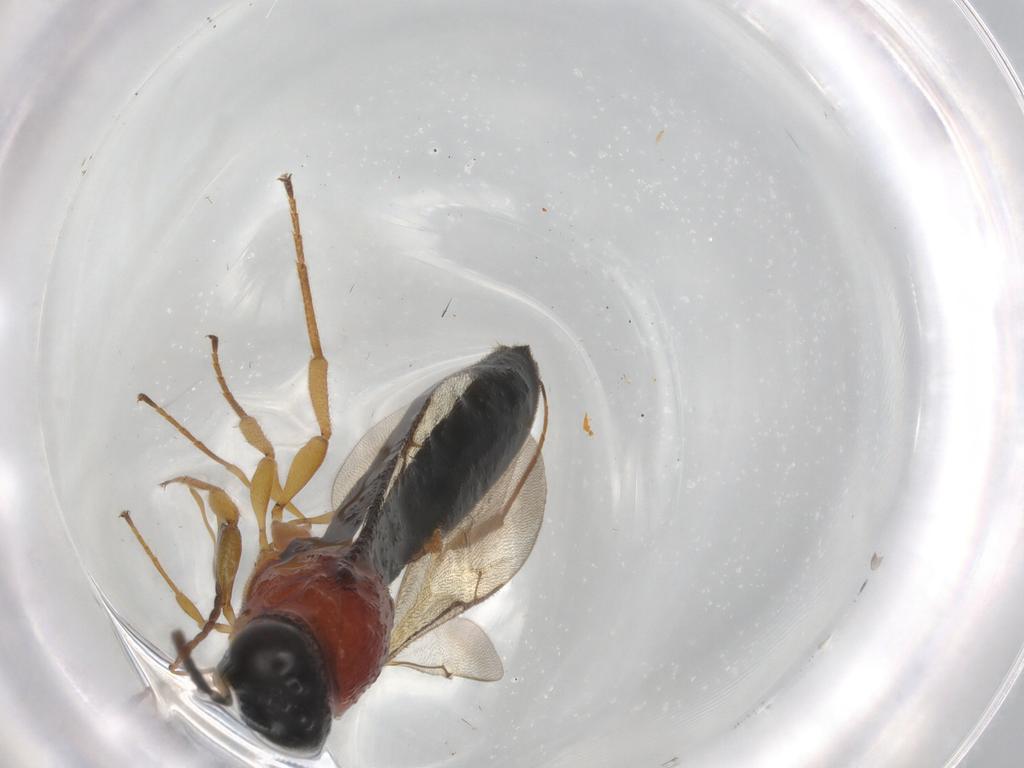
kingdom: Animalia
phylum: Arthropoda
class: Insecta
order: Hymenoptera
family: Scelionidae
